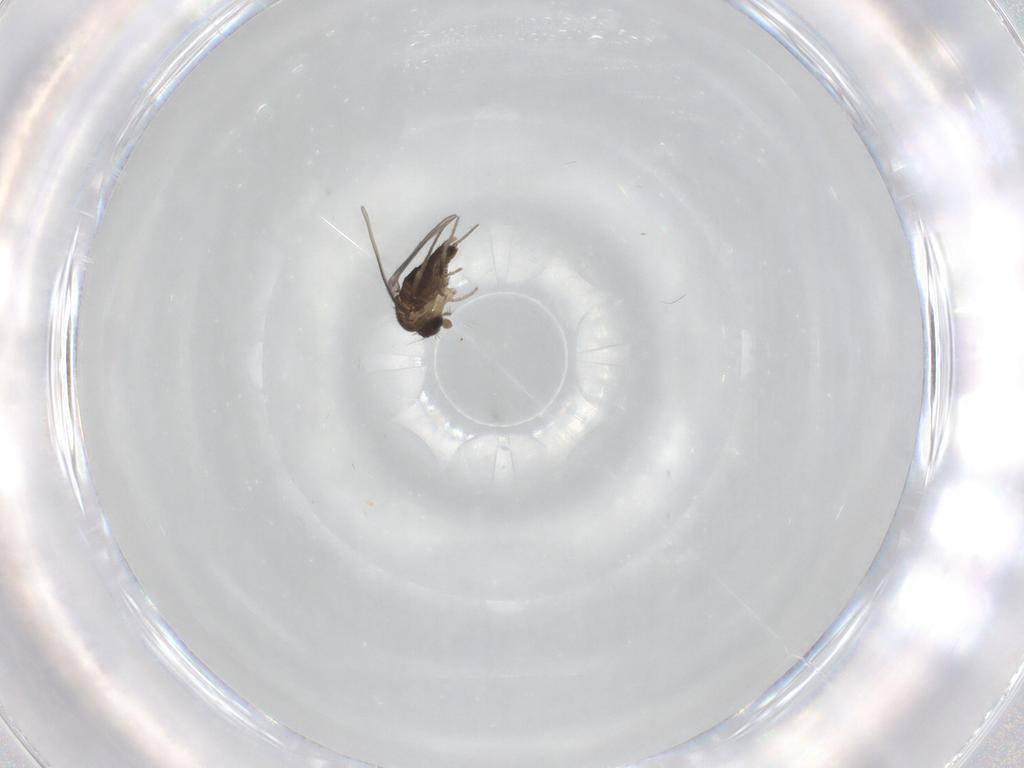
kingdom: Animalia
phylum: Arthropoda
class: Insecta
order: Diptera
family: Phoridae
